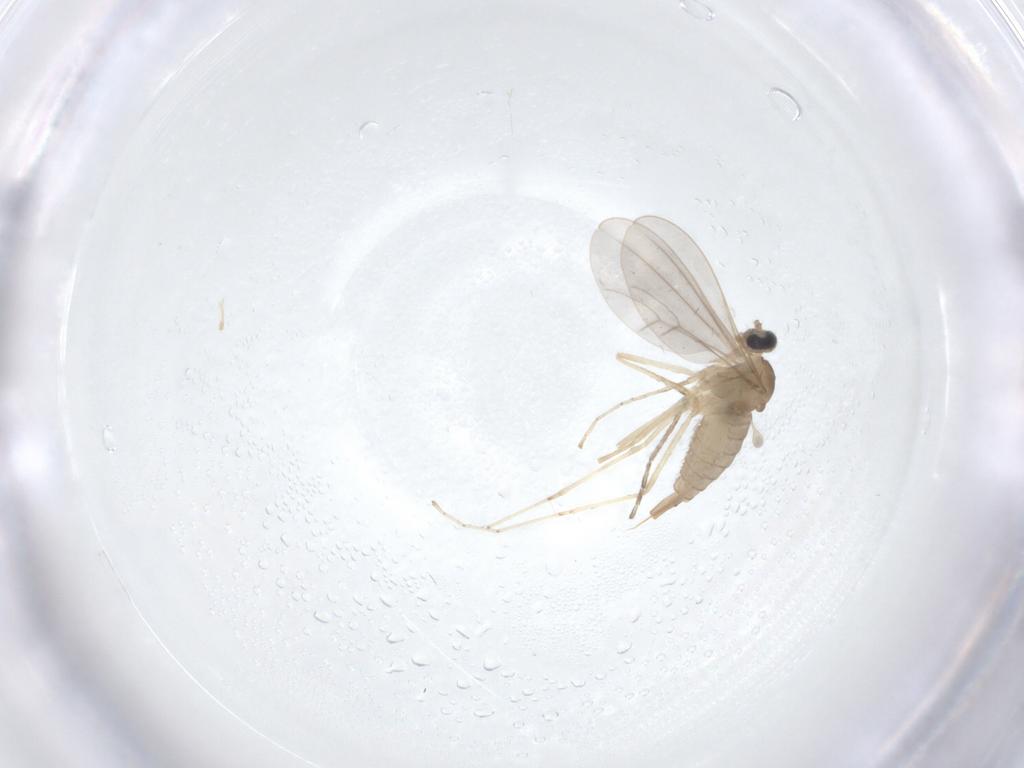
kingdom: Animalia
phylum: Arthropoda
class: Insecta
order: Diptera
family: Cecidomyiidae
